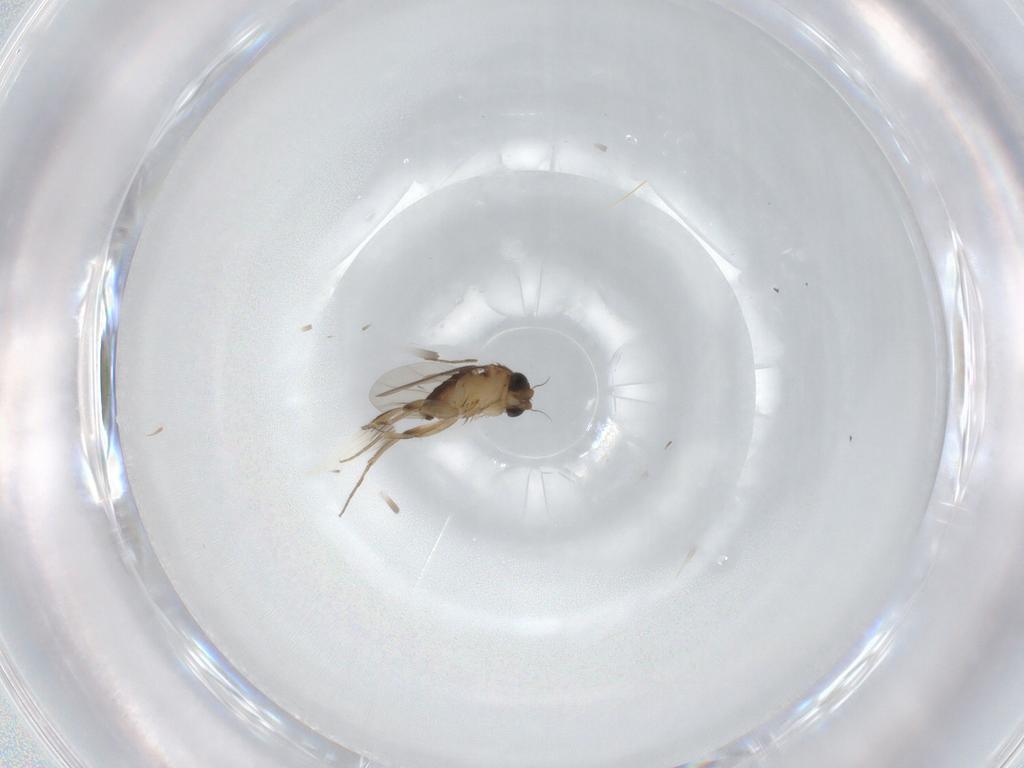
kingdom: Animalia
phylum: Arthropoda
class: Insecta
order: Diptera
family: Phoridae
